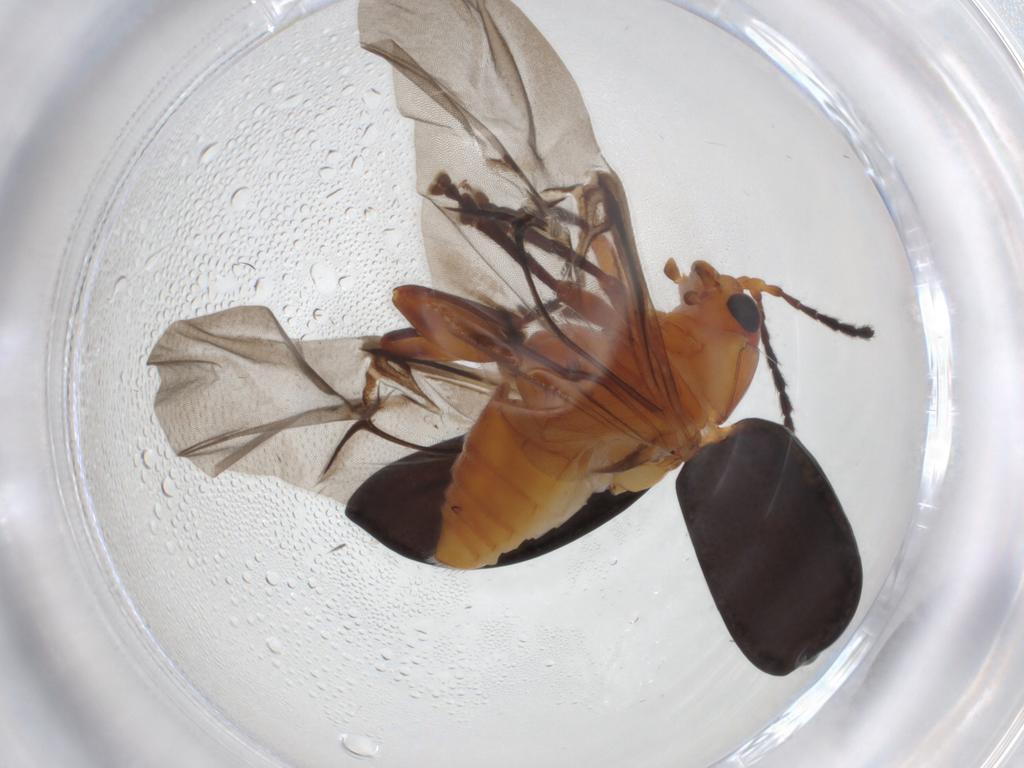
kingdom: Animalia
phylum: Arthropoda
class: Insecta
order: Coleoptera
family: Chrysomelidae
